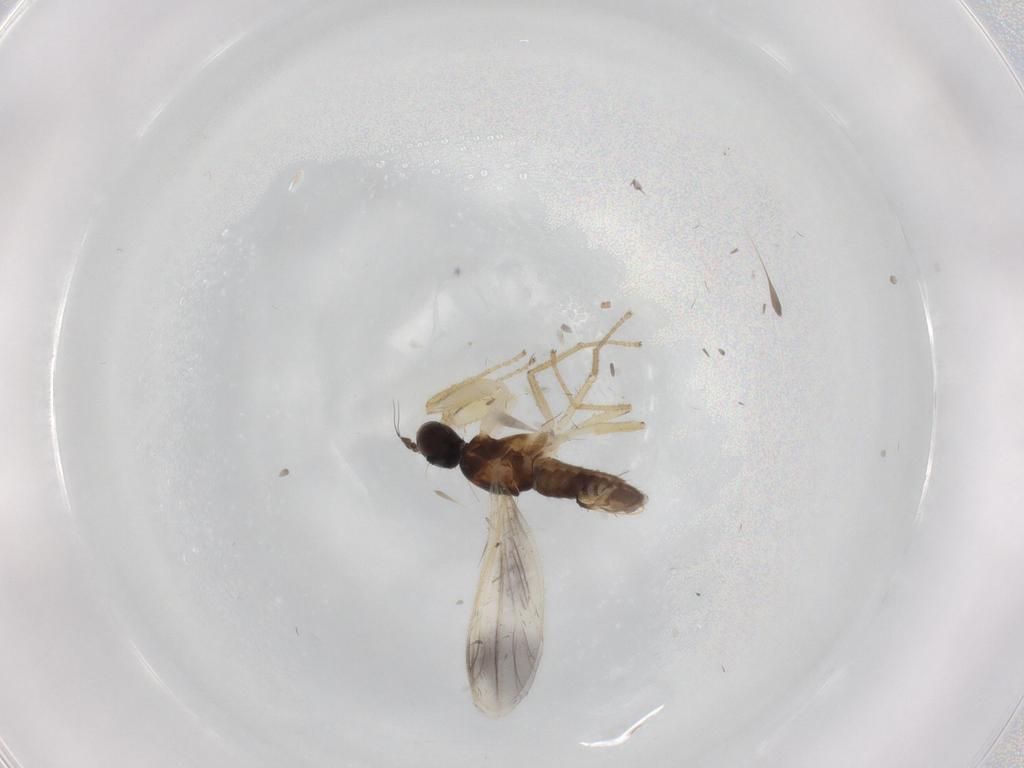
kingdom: Animalia
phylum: Arthropoda
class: Insecta
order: Diptera
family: Empididae
